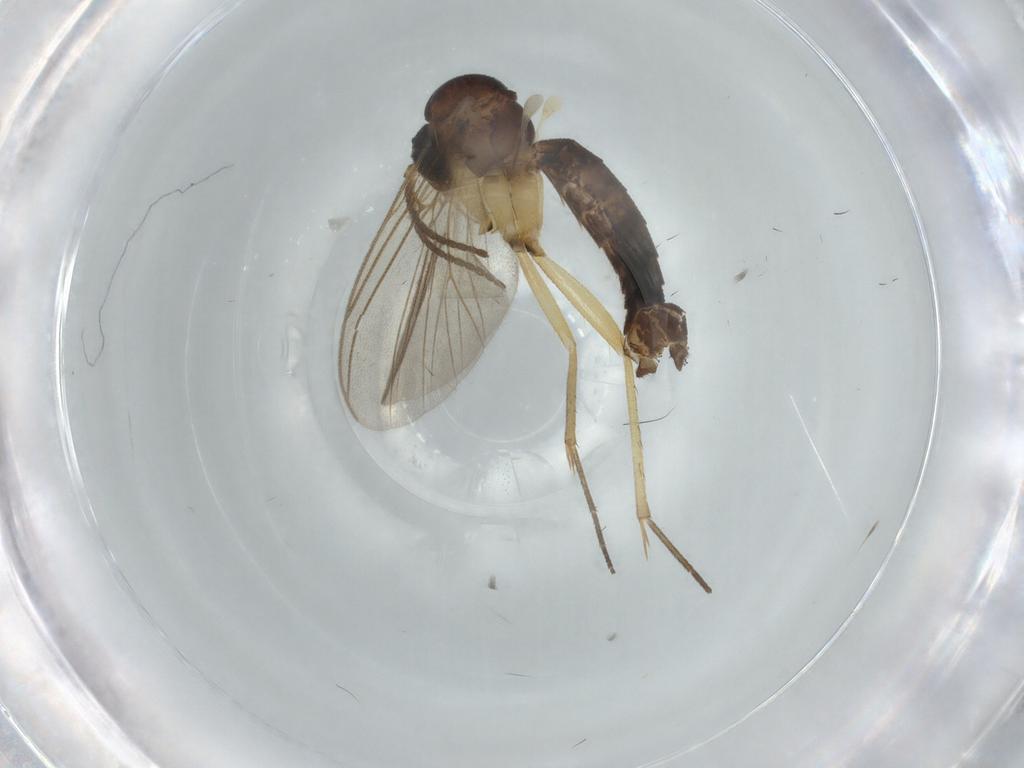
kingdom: Animalia
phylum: Arthropoda
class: Insecta
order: Diptera
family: Mycetophilidae
